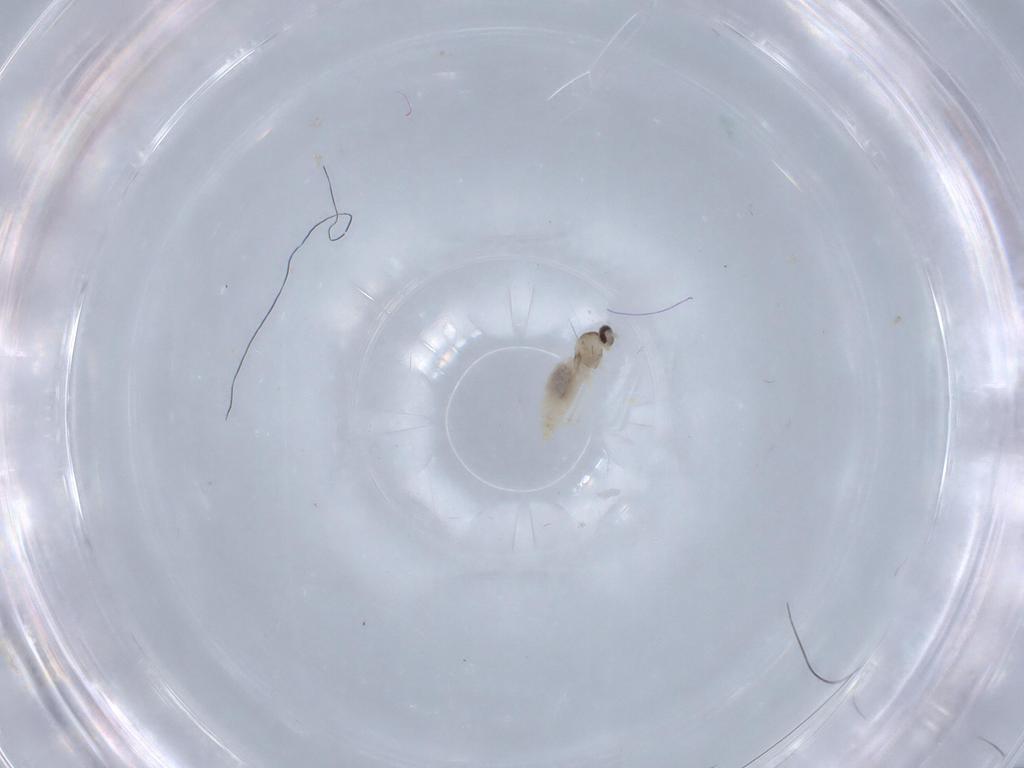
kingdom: Animalia
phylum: Arthropoda
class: Insecta
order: Diptera
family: Cecidomyiidae
